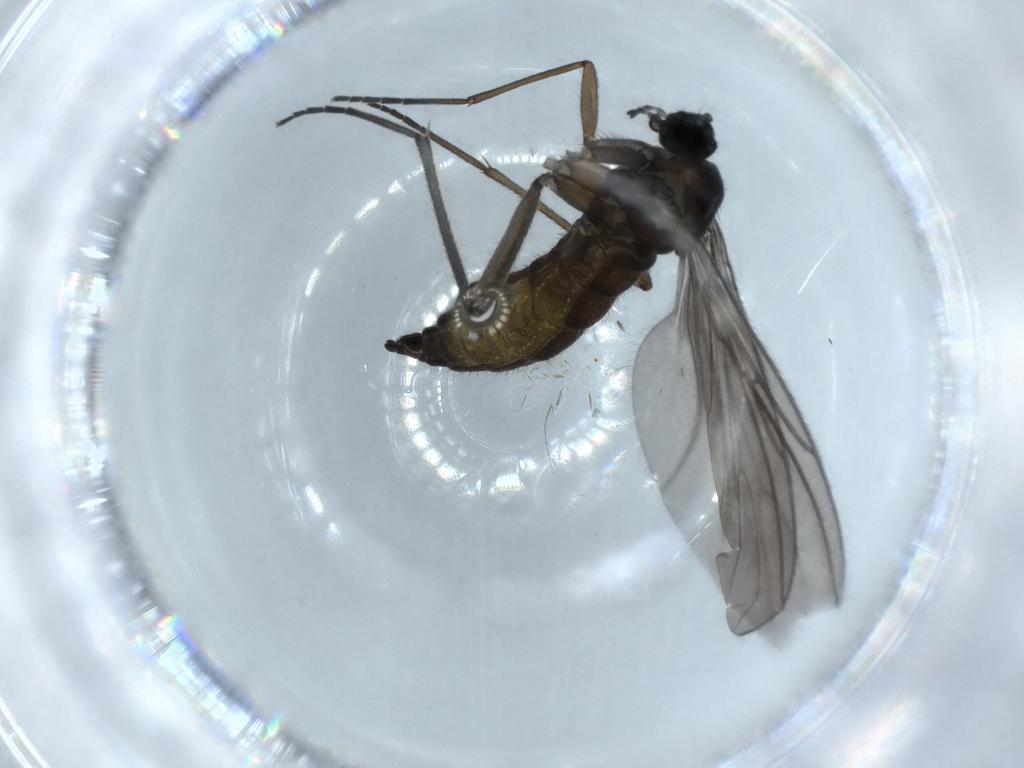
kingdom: Animalia
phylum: Arthropoda
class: Insecta
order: Diptera
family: Sciaridae
